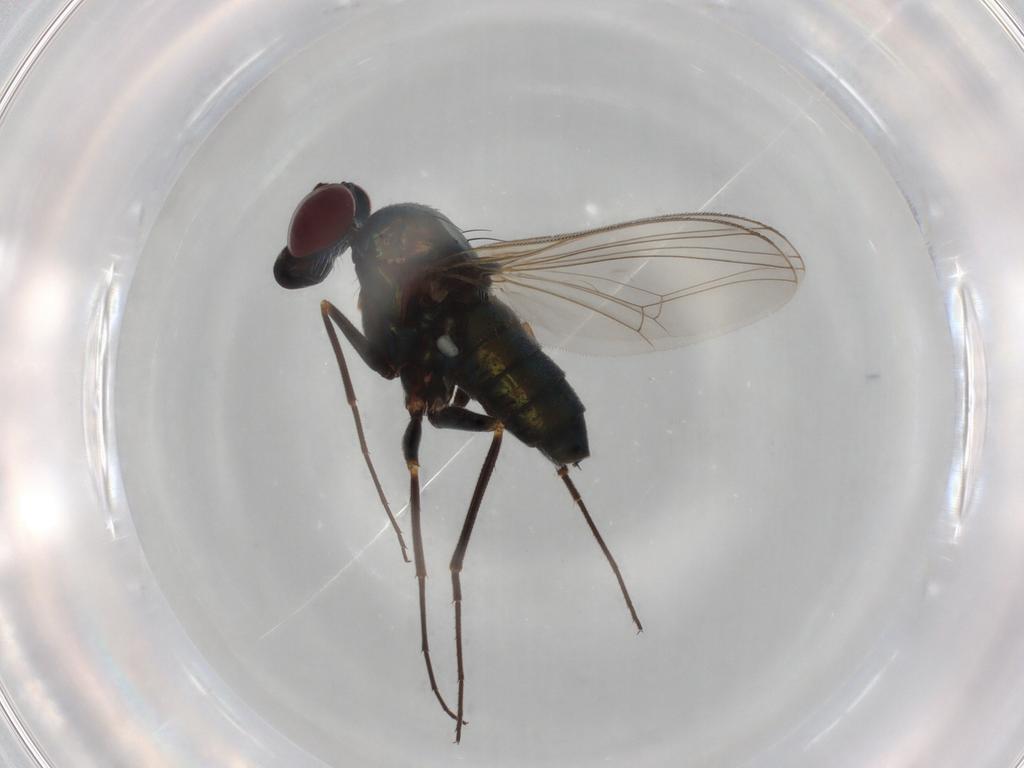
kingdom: Animalia
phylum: Arthropoda
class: Insecta
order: Diptera
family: Dolichopodidae
